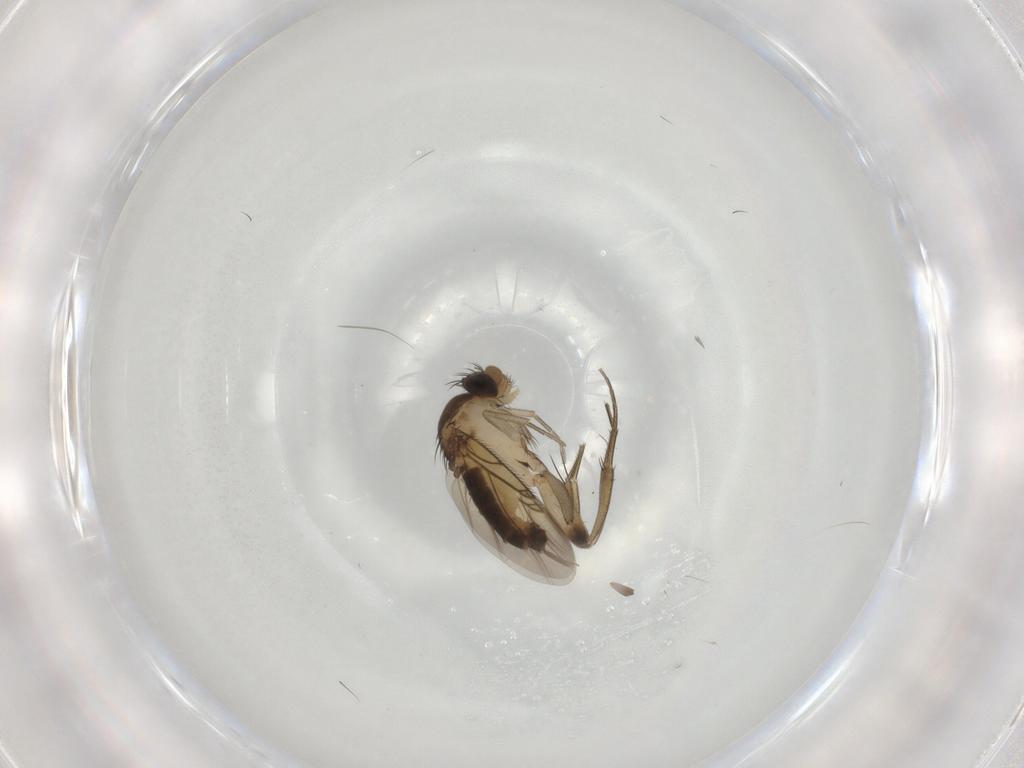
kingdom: Animalia
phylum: Arthropoda
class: Insecta
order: Diptera
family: Phoridae
